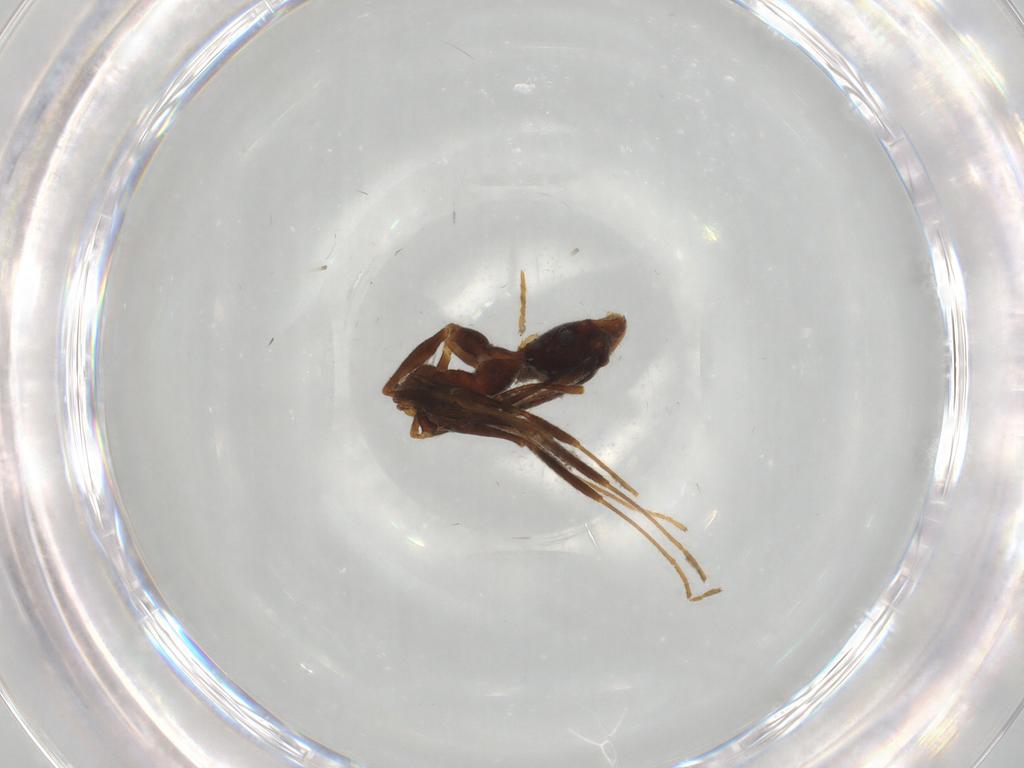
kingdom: Animalia
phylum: Arthropoda
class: Insecta
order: Hymenoptera
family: Formicidae
